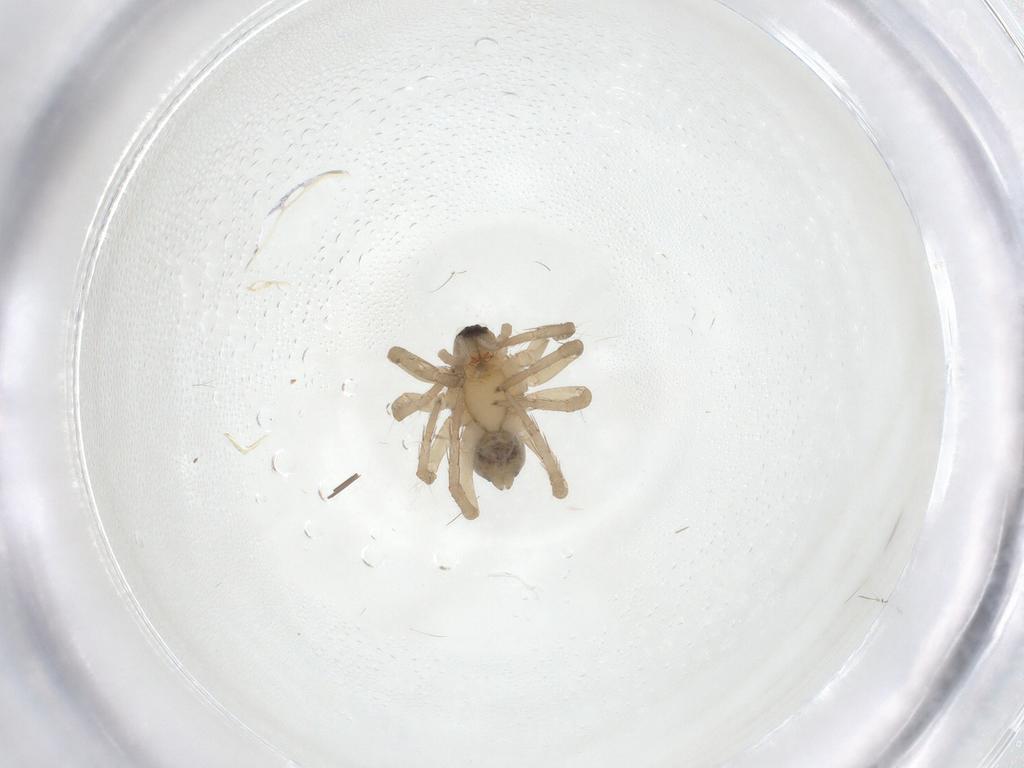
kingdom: Animalia
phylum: Arthropoda
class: Arachnida
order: Araneae
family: Lycosidae
